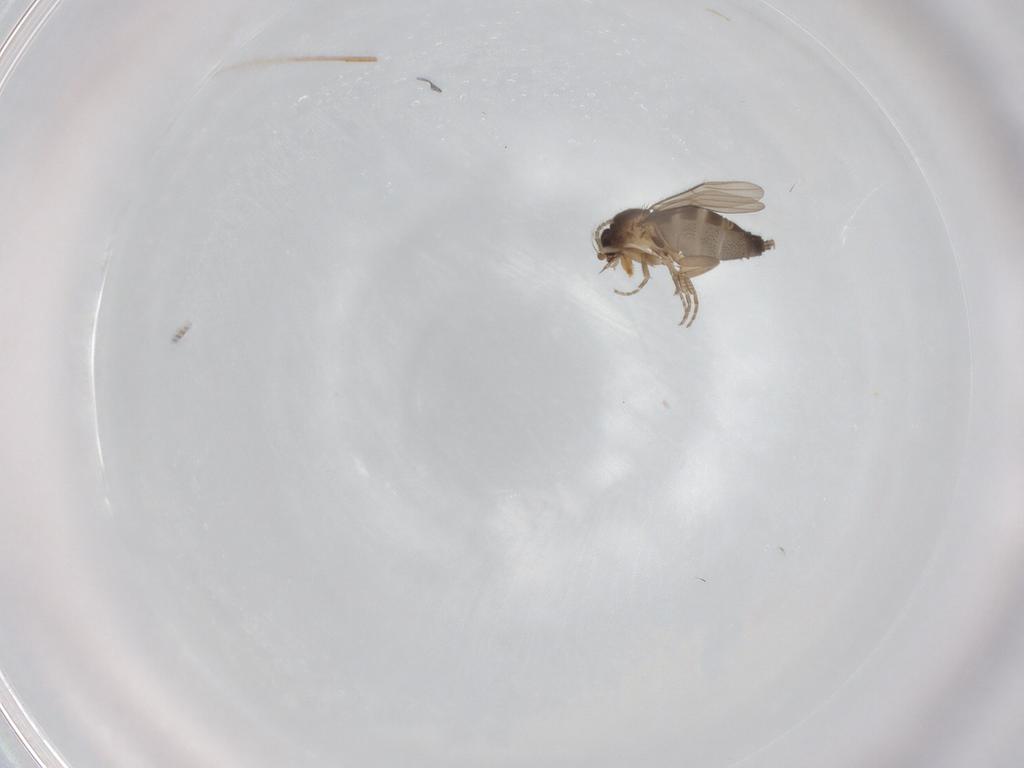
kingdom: Animalia
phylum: Arthropoda
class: Insecta
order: Diptera
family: Phoridae
